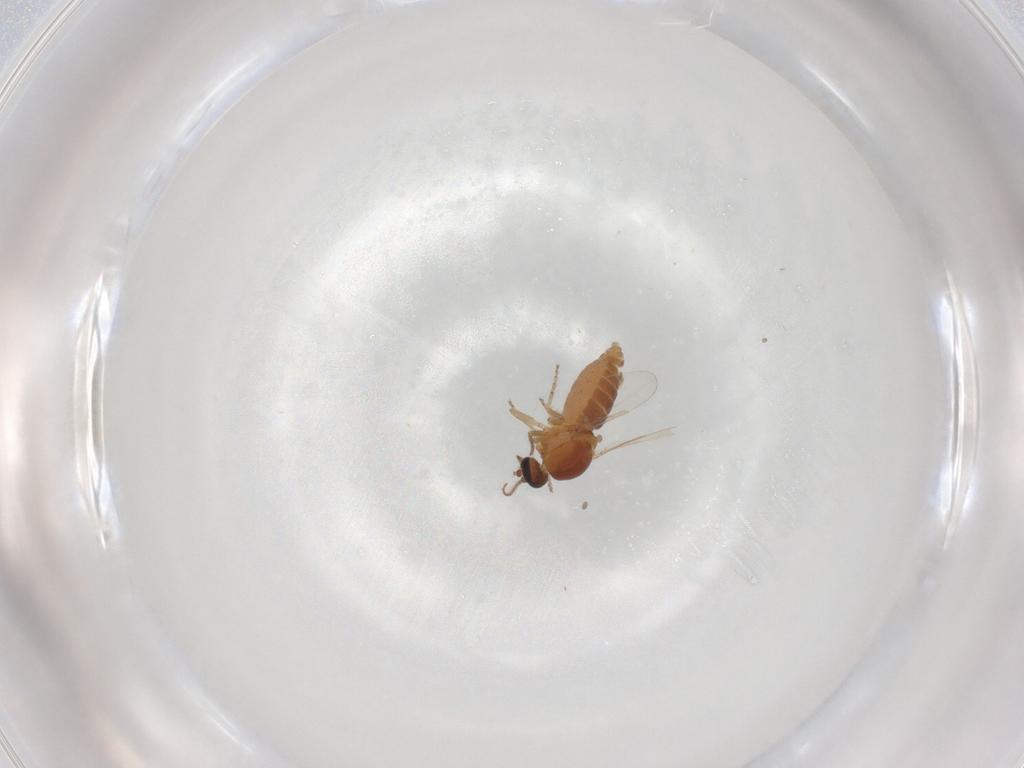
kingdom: Animalia
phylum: Arthropoda
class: Insecta
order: Diptera
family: Ceratopogonidae
